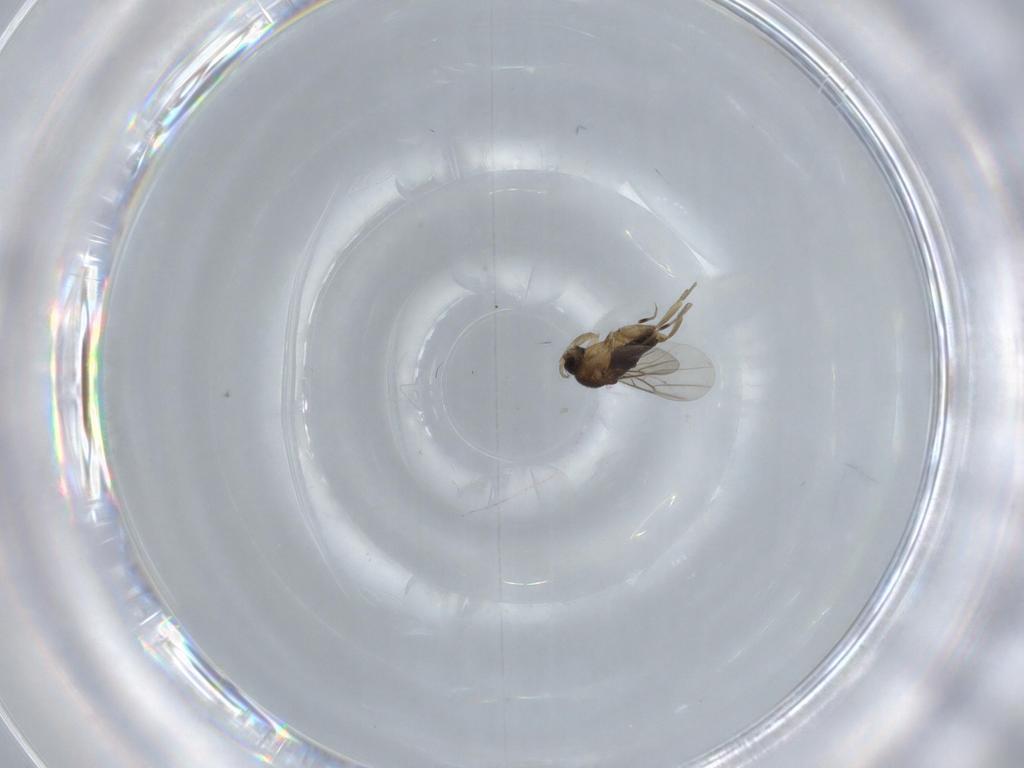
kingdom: Animalia
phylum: Arthropoda
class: Insecta
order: Diptera
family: Phoridae
